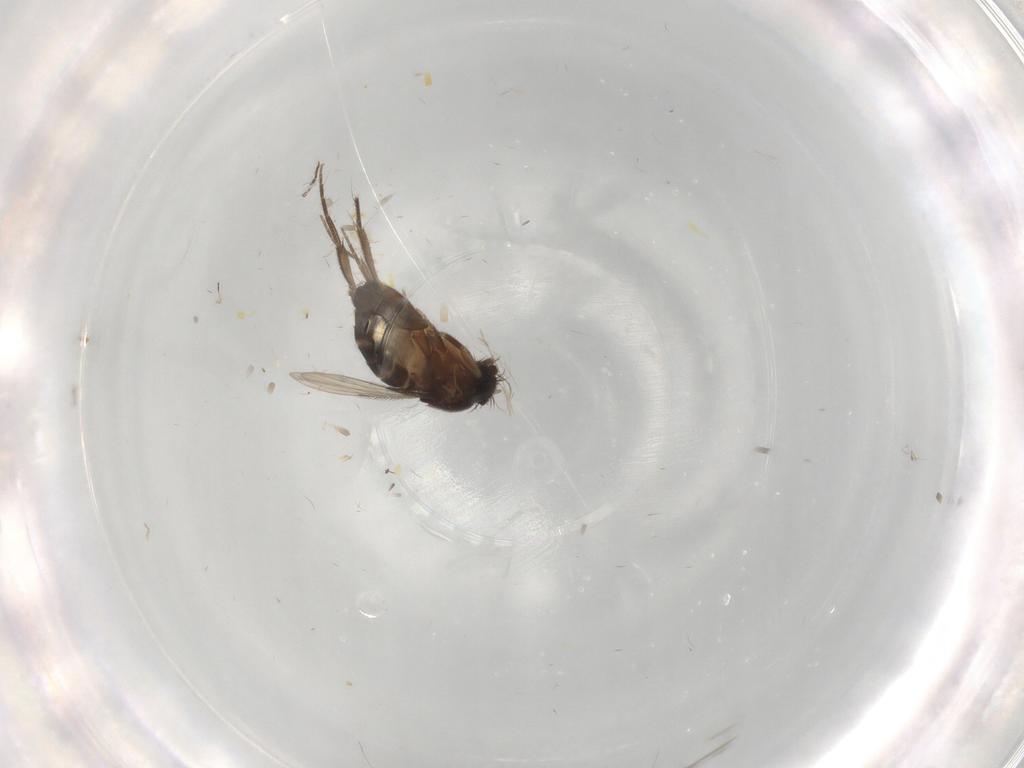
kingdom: Animalia
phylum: Arthropoda
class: Insecta
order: Diptera
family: Phoridae
